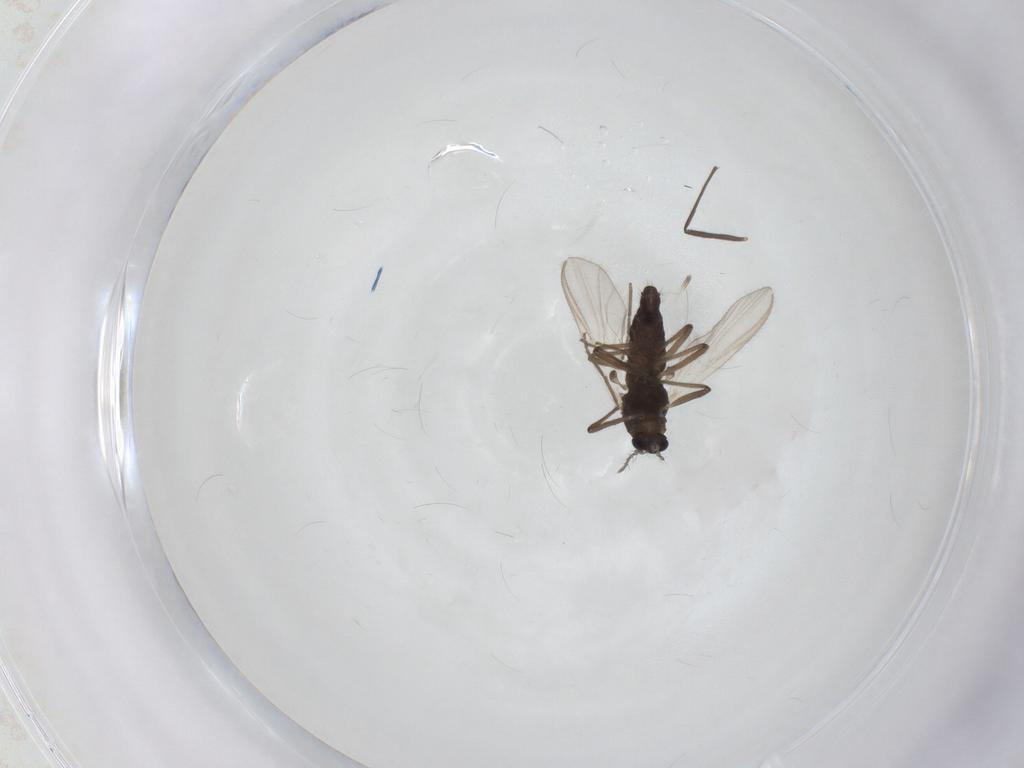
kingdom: Animalia
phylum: Arthropoda
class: Insecta
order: Diptera
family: Chironomidae
